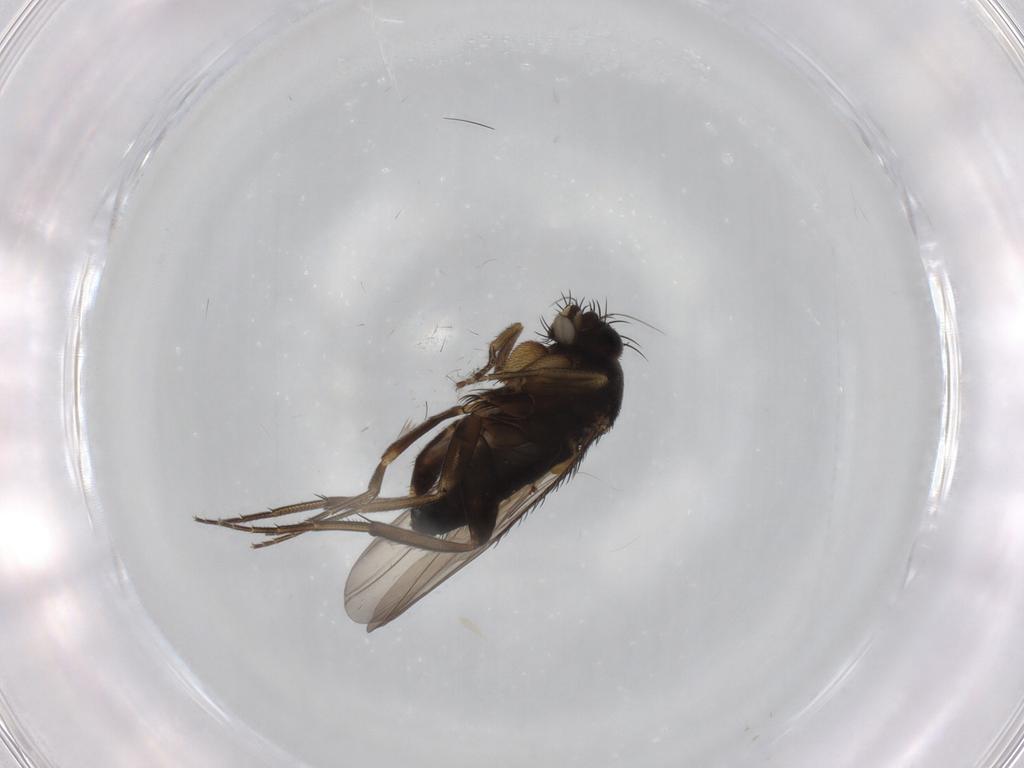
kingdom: Animalia
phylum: Arthropoda
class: Insecta
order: Diptera
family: Phoridae
